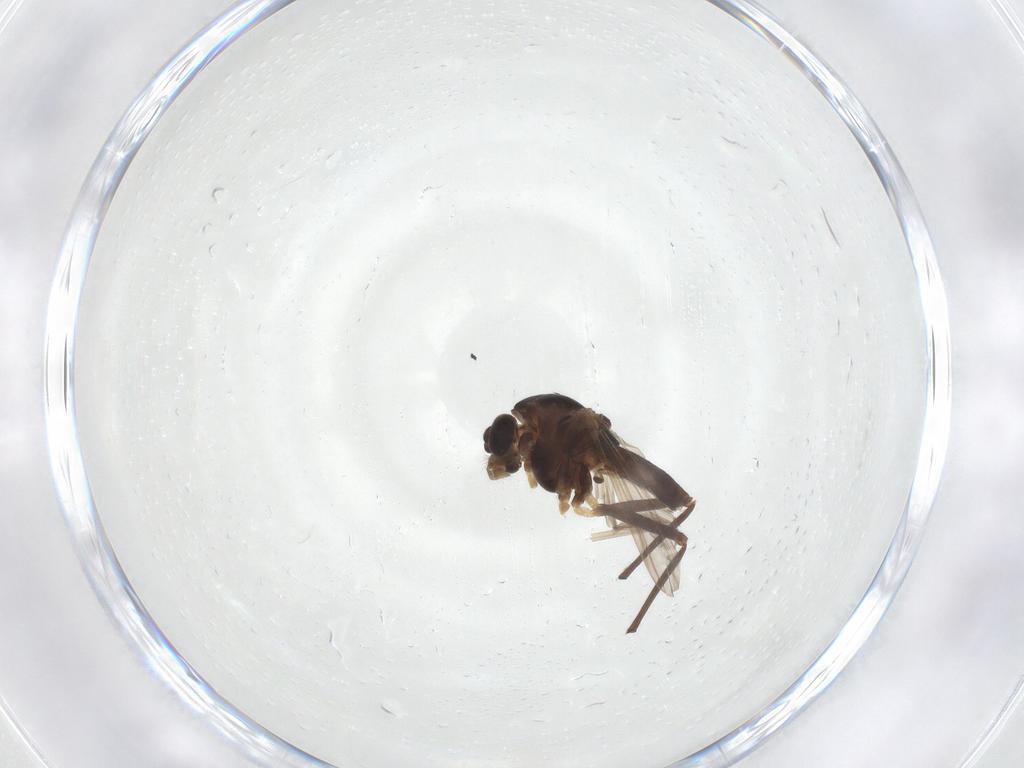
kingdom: Animalia
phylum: Arthropoda
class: Insecta
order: Diptera
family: Chironomidae
